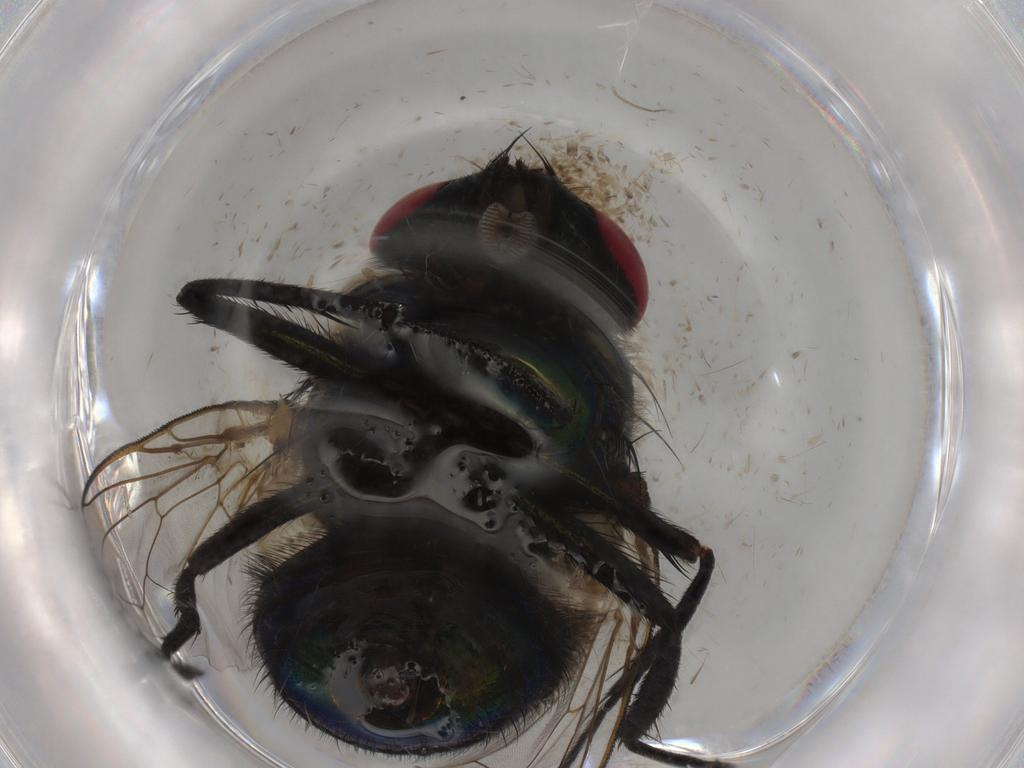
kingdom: Animalia
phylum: Arthropoda
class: Insecta
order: Diptera
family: Muscidae
